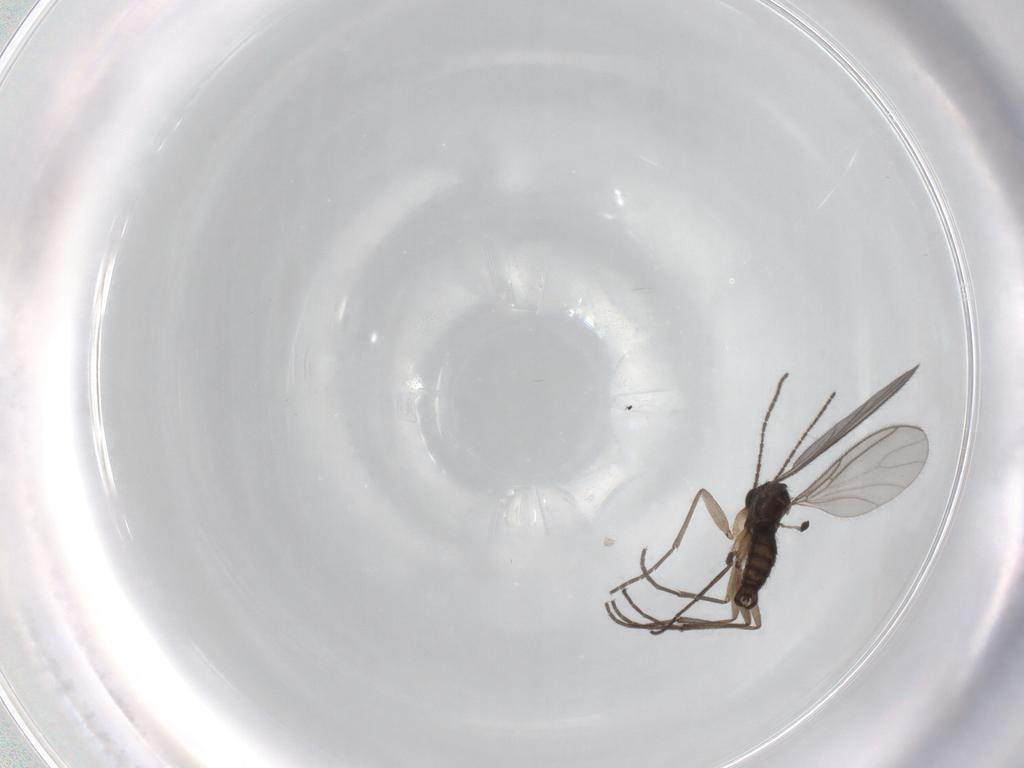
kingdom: Animalia
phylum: Arthropoda
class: Insecta
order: Diptera
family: Sciaridae
